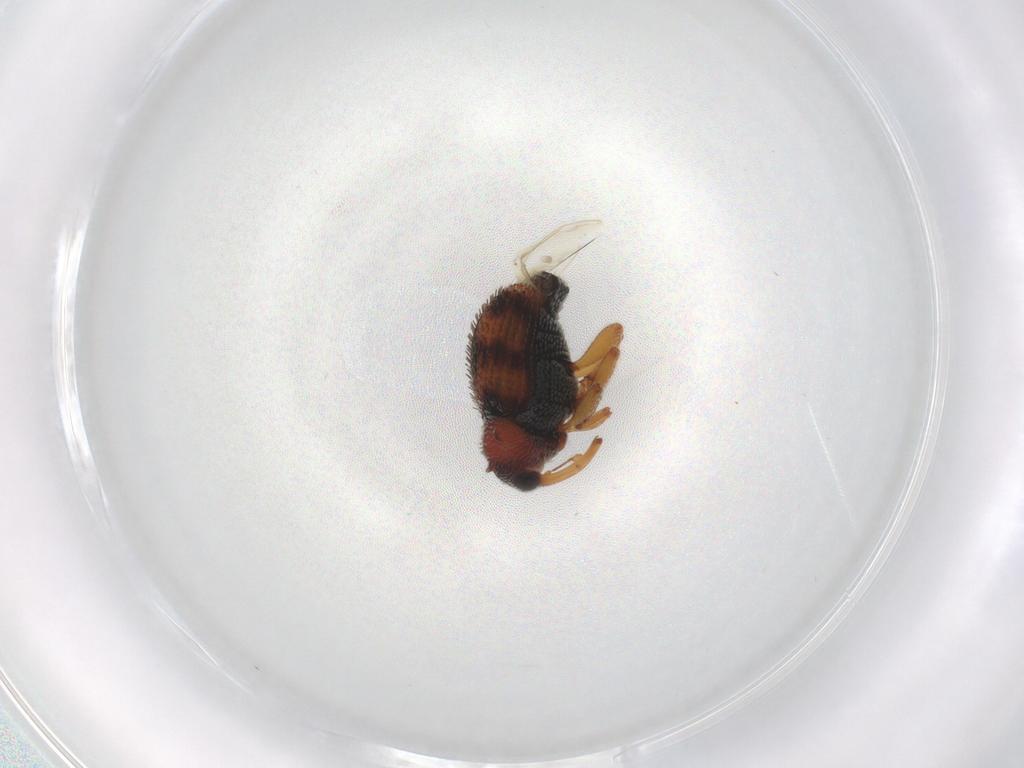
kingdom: Animalia
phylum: Arthropoda
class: Insecta
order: Coleoptera
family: Curculionidae
